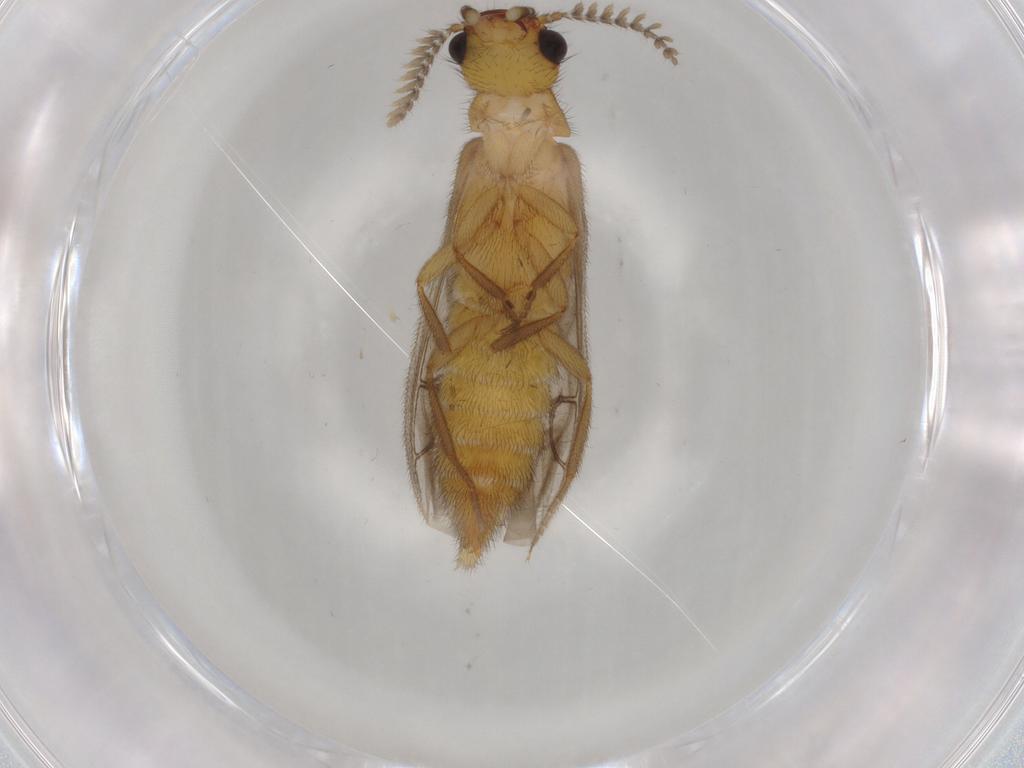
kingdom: Animalia
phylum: Arthropoda
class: Insecta
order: Coleoptera
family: Phengodidae
